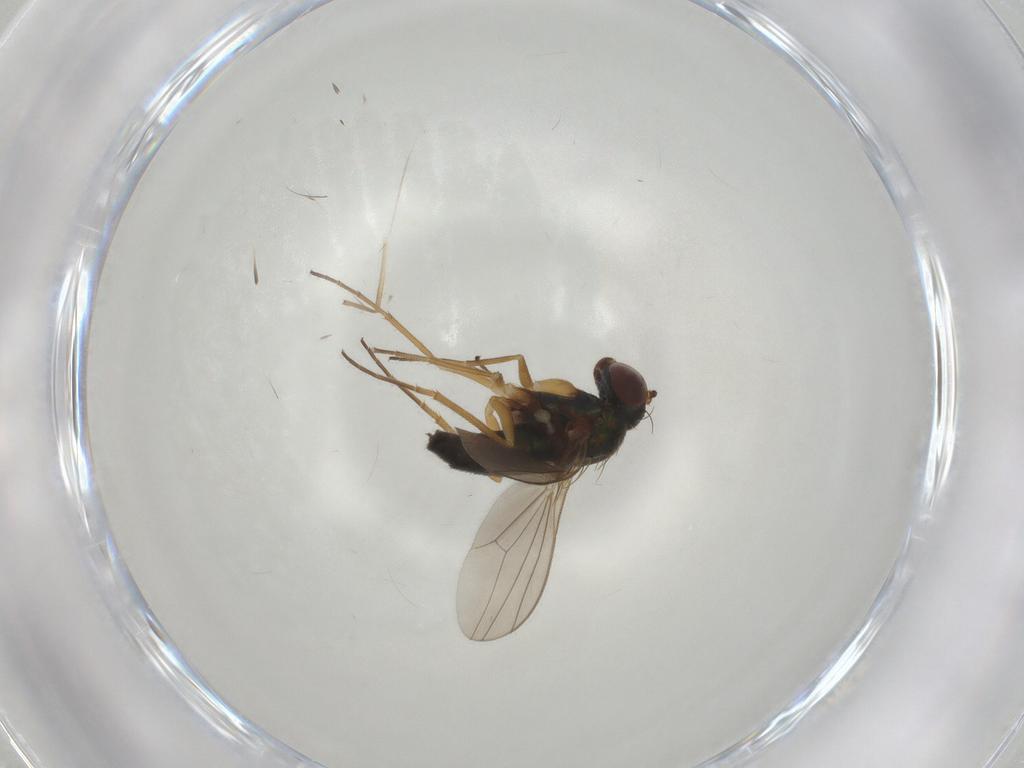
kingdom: Animalia
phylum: Arthropoda
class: Insecta
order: Diptera
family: Dolichopodidae
